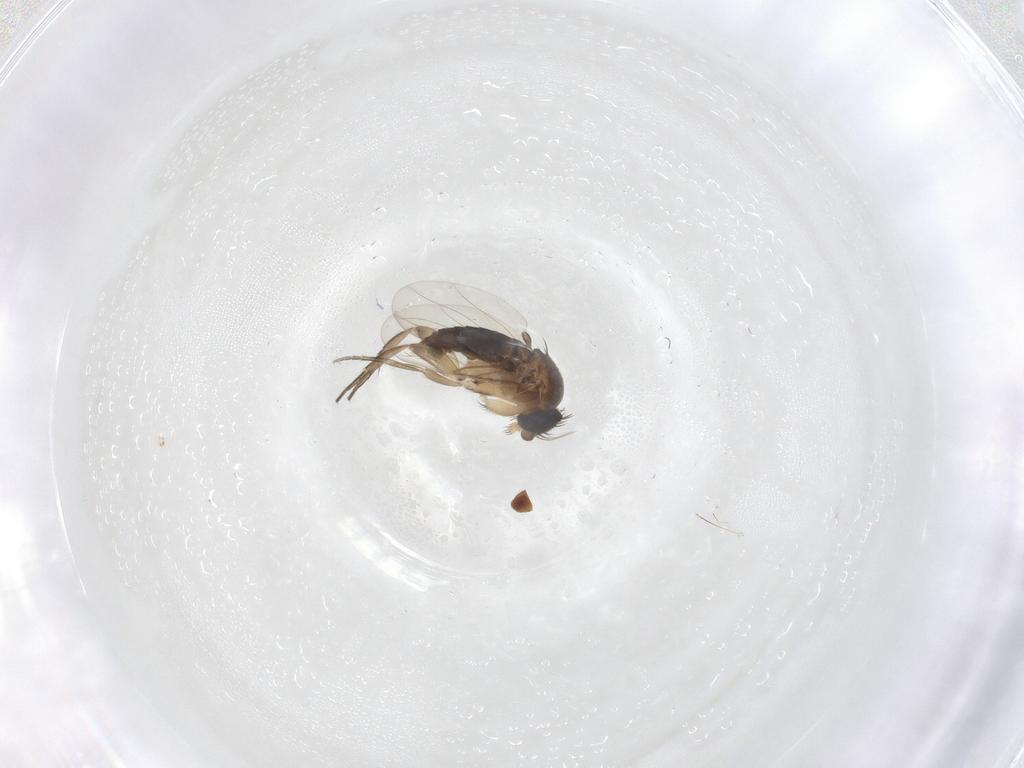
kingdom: Animalia
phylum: Arthropoda
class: Insecta
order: Diptera
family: Phoridae
